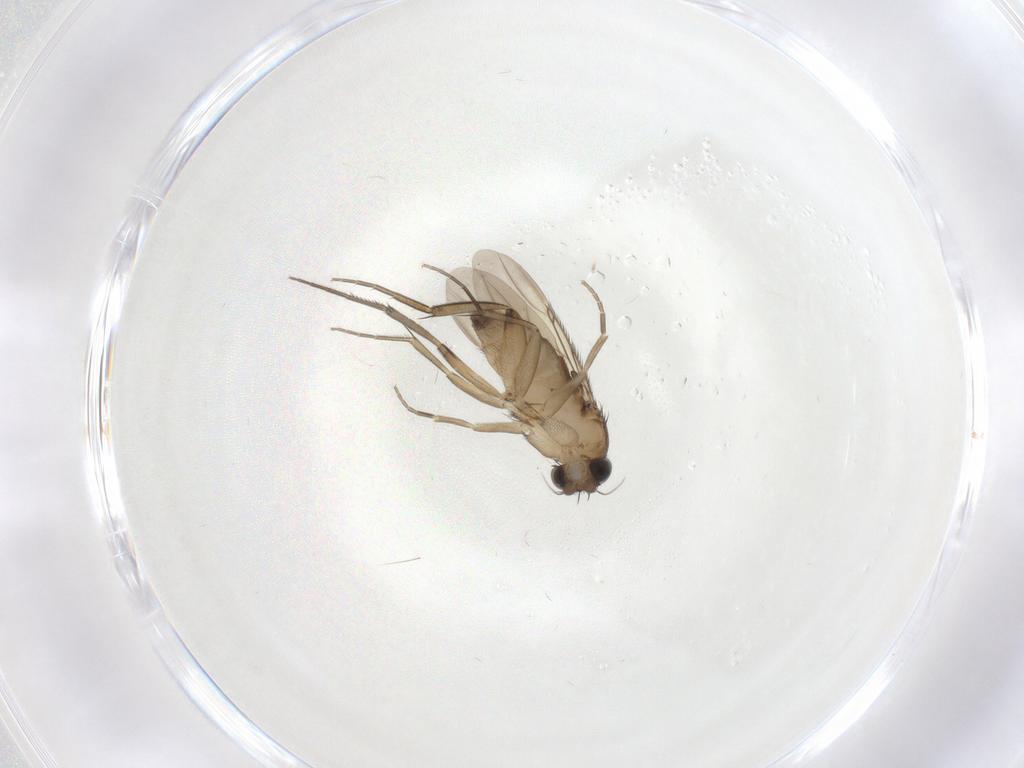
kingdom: Animalia
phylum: Arthropoda
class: Insecta
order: Diptera
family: Phoridae
